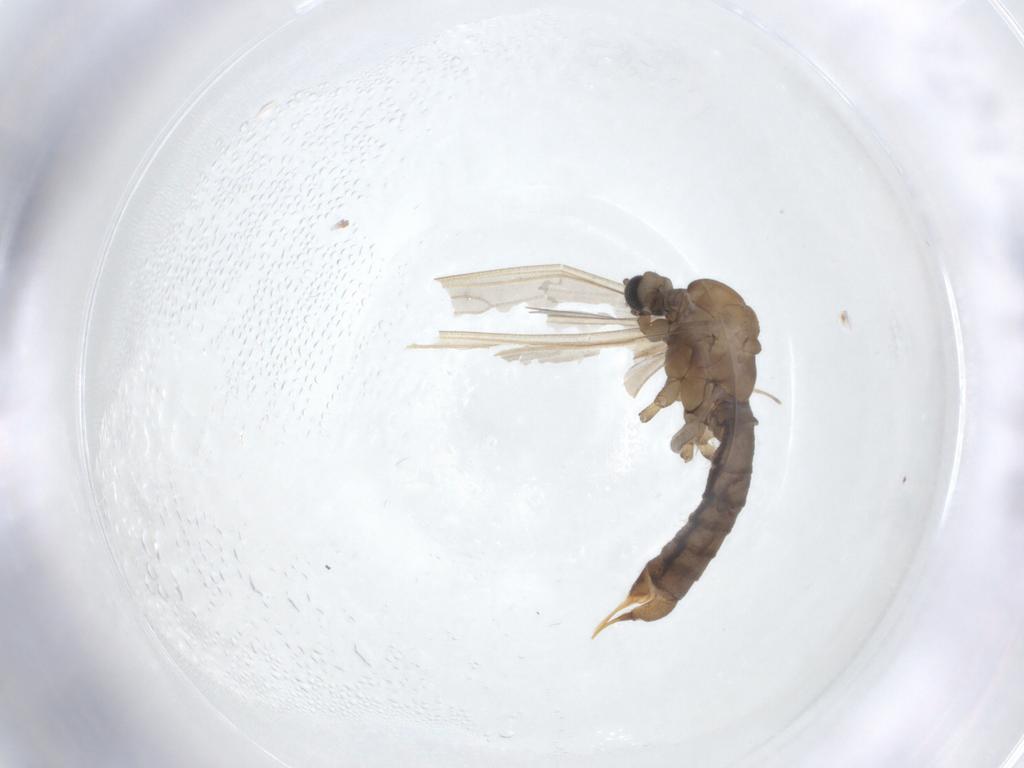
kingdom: Animalia
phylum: Arthropoda
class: Insecta
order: Diptera
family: Limoniidae
